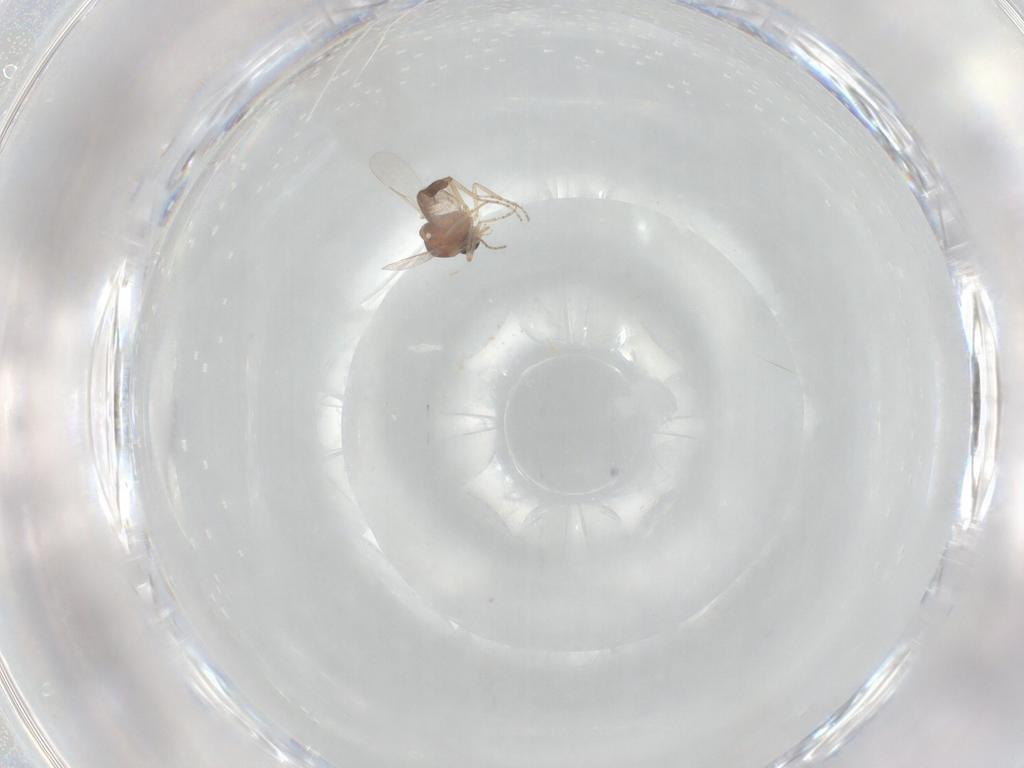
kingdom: Animalia
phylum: Arthropoda
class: Insecta
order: Diptera
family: Ceratopogonidae
